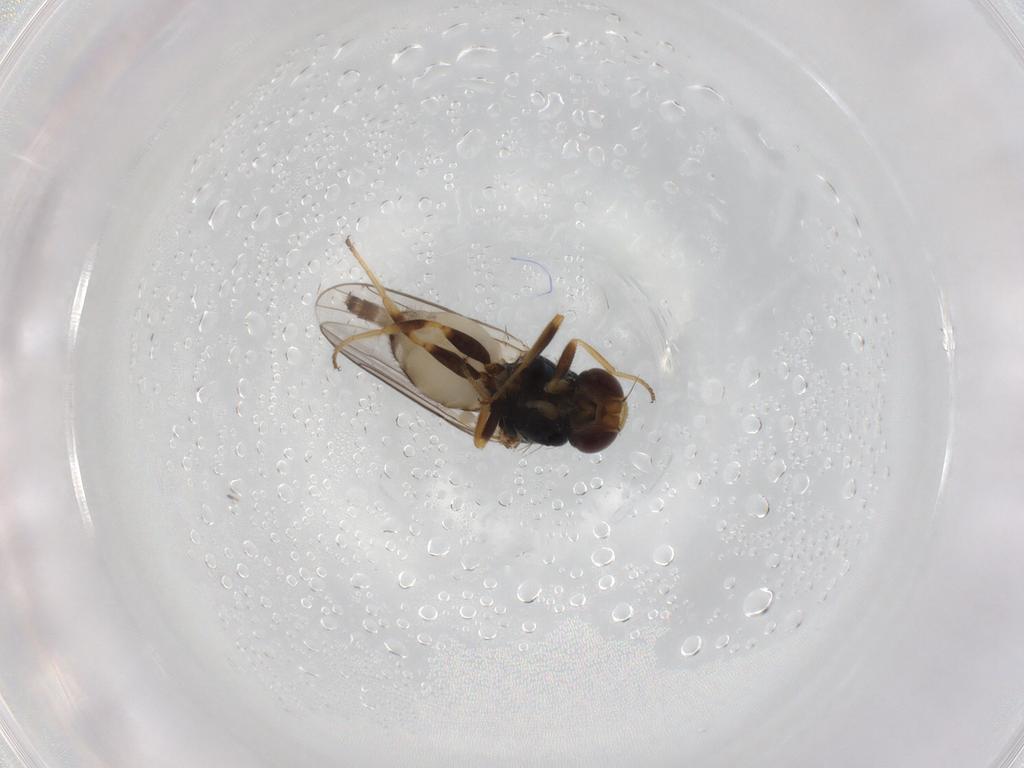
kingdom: Animalia
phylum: Arthropoda
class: Insecta
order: Diptera
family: Chloropidae
